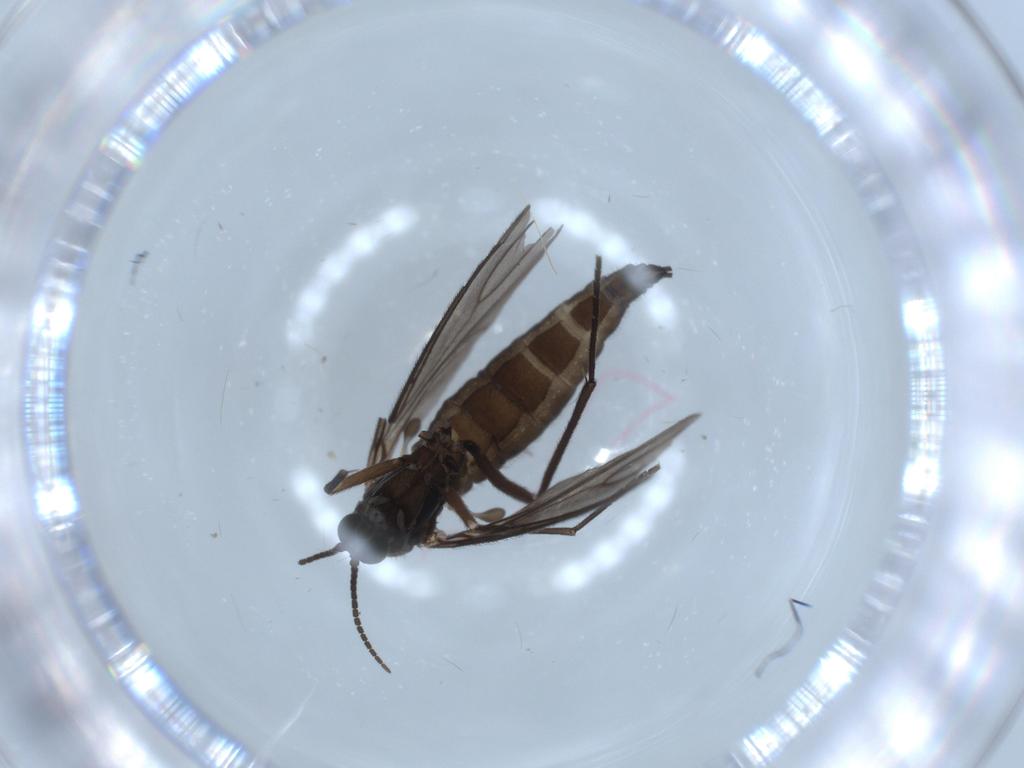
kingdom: Animalia
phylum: Arthropoda
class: Insecta
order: Diptera
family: Sciaridae
